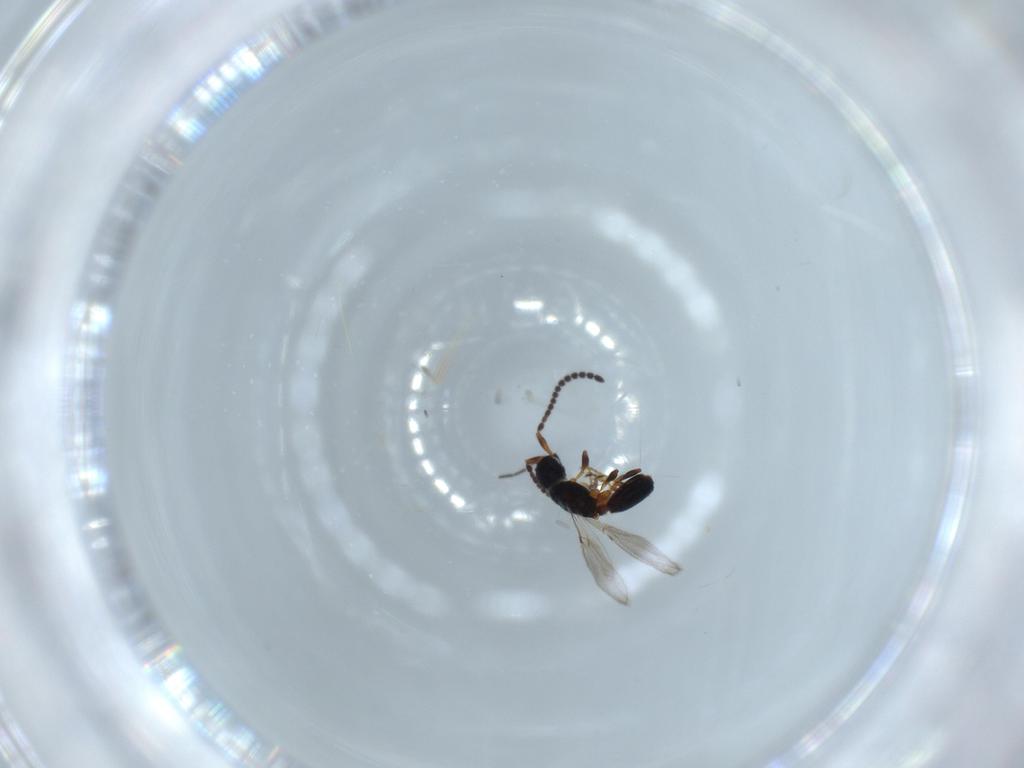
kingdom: Animalia
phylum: Arthropoda
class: Insecta
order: Hymenoptera
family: Diapriidae
